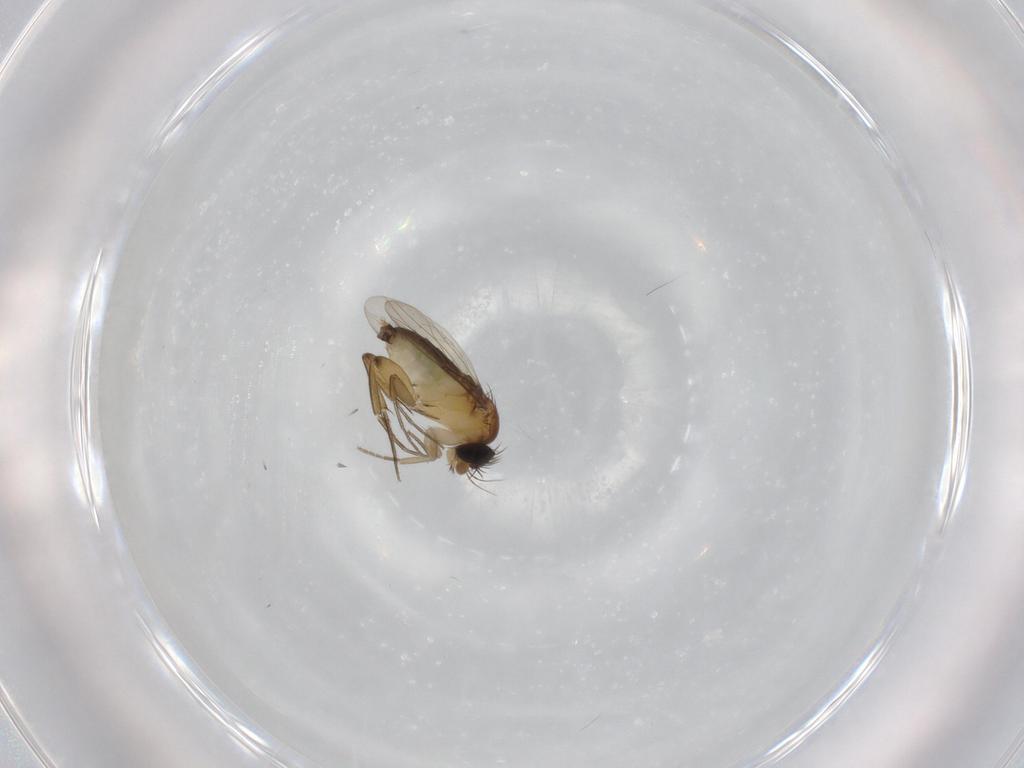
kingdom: Animalia
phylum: Arthropoda
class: Insecta
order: Diptera
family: Phoridae
